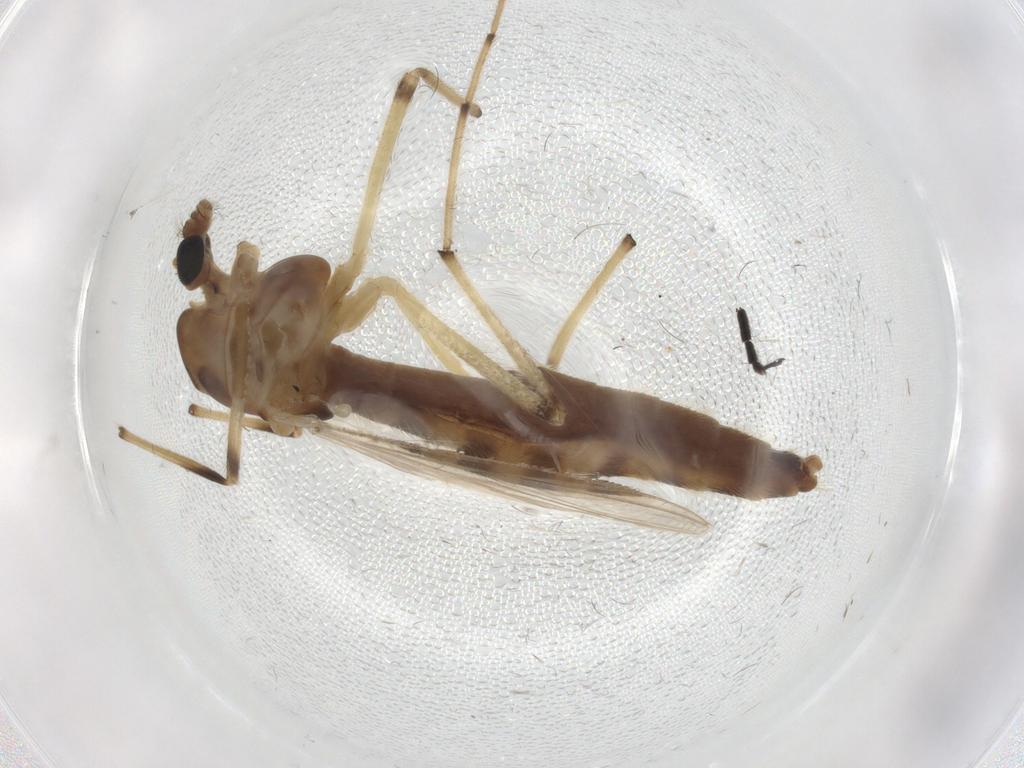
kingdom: Animalia
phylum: Arthropoda
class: Insecta
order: Diptera
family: Simuliidae
